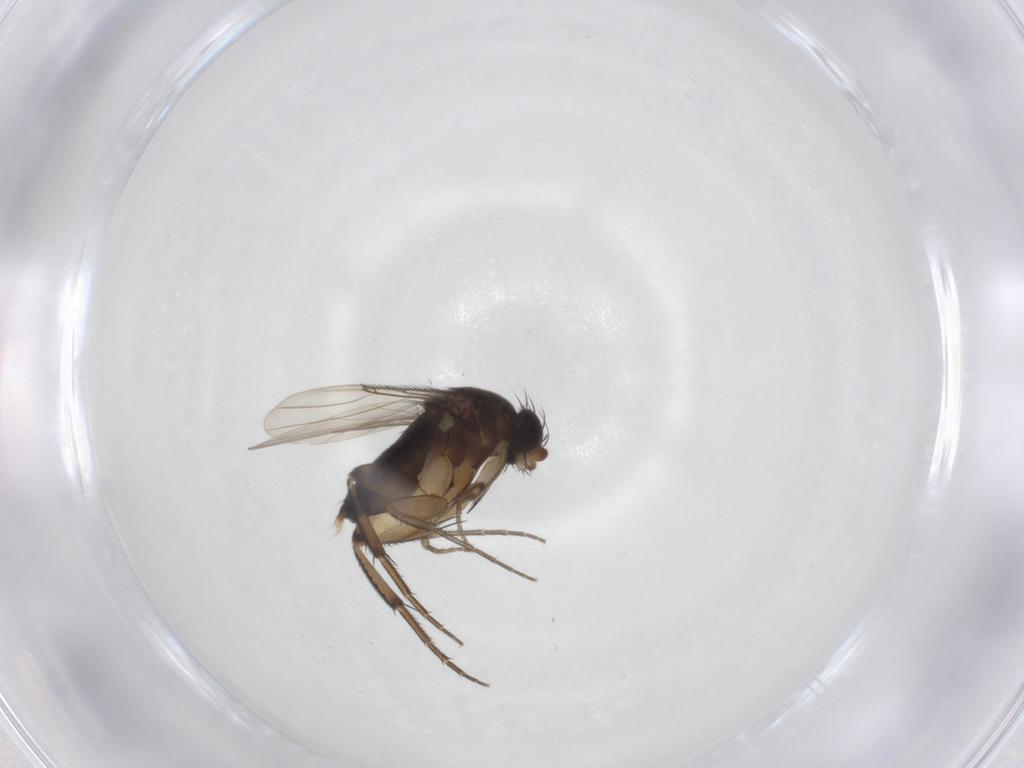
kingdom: Animalia
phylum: Arthropoda
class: Insecta
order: Diptera
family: Phoridae
